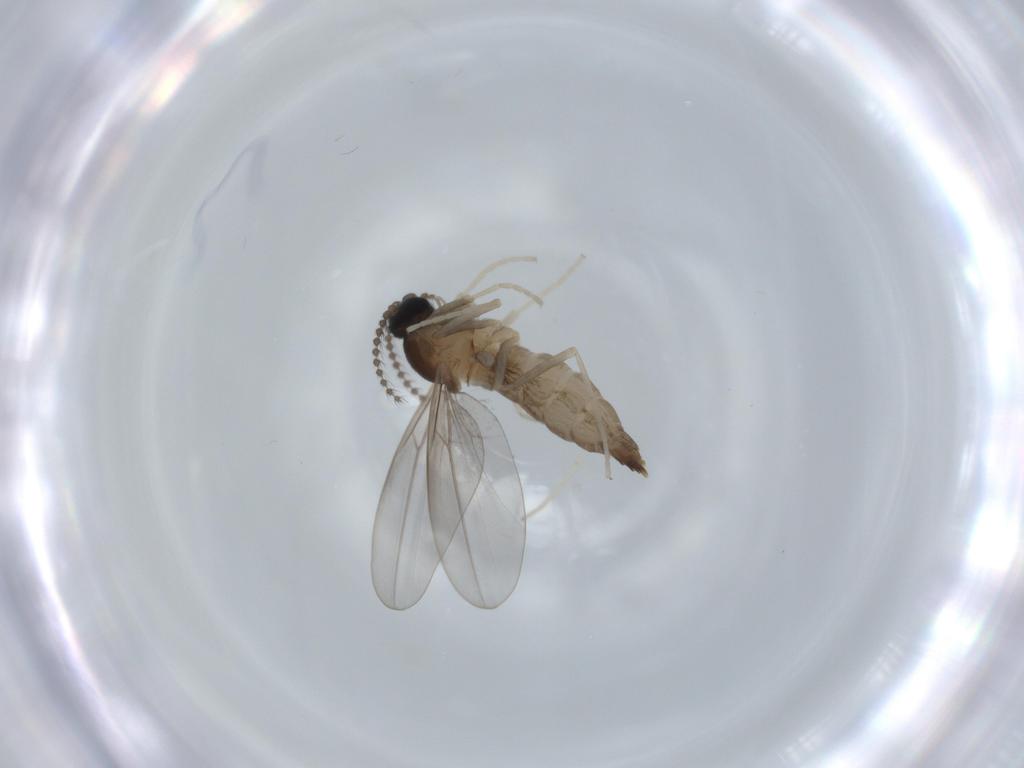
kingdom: Animalia
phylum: Arthropoda
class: Insecta
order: Diptera
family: Cecidomyiidae
